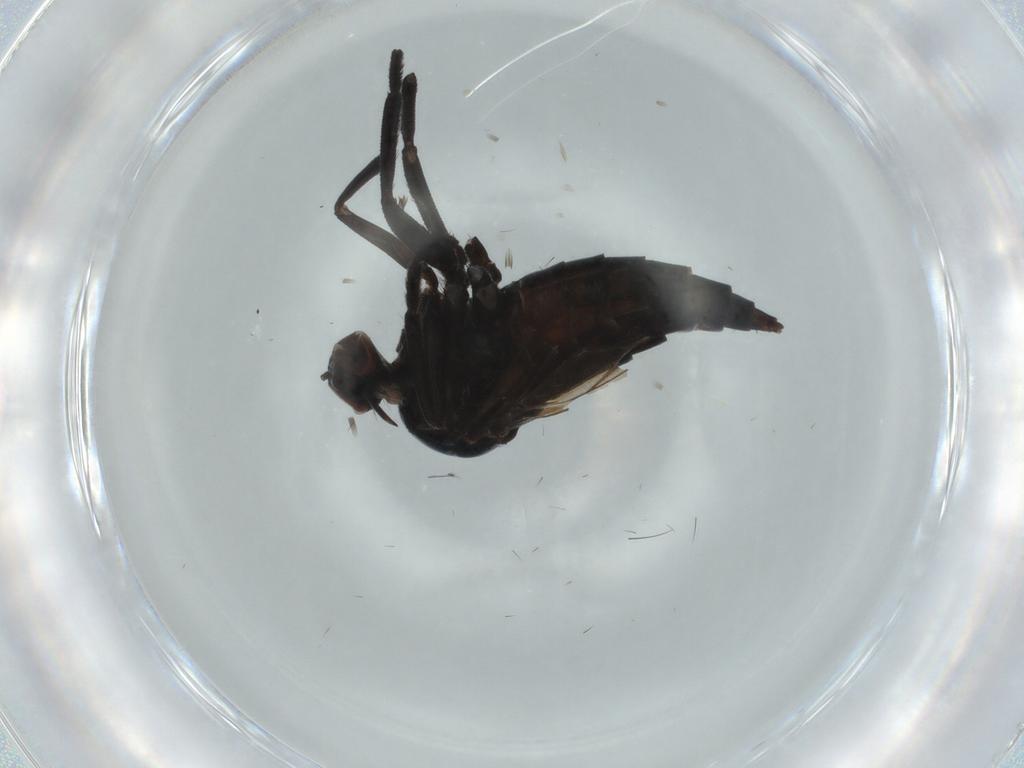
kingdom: Animalia
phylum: Arthropoda
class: Insecta
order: Diptera
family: Empididae
